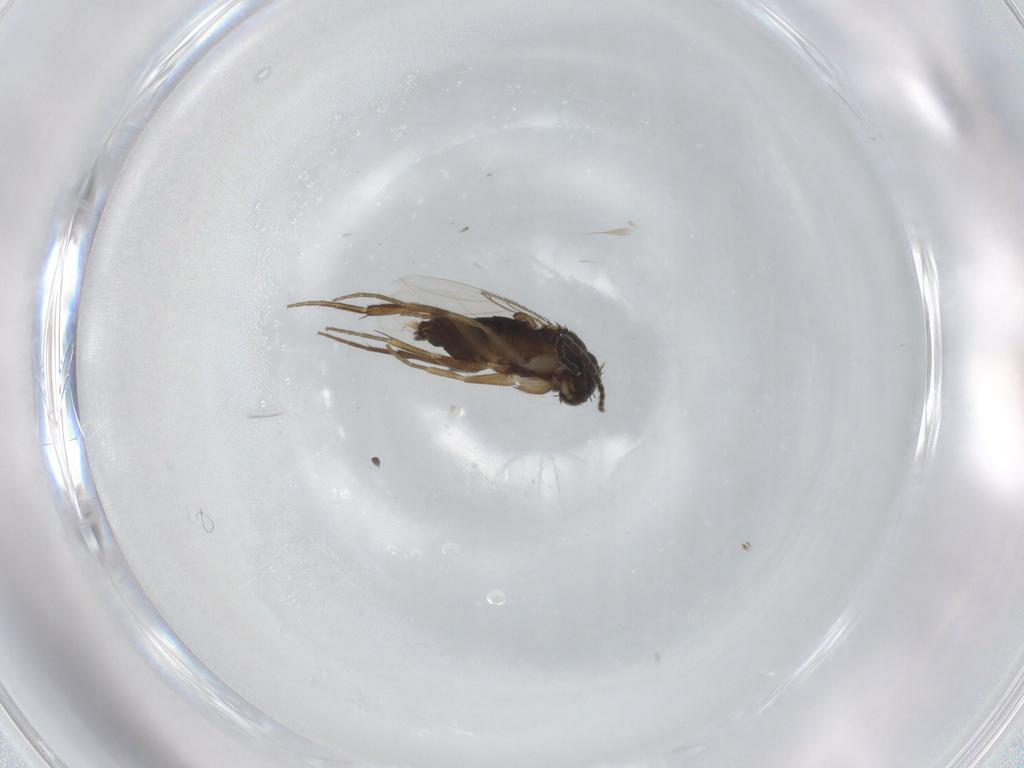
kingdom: Animalia
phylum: Arthropoda
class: Insecta
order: Diptera
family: Phoridae
